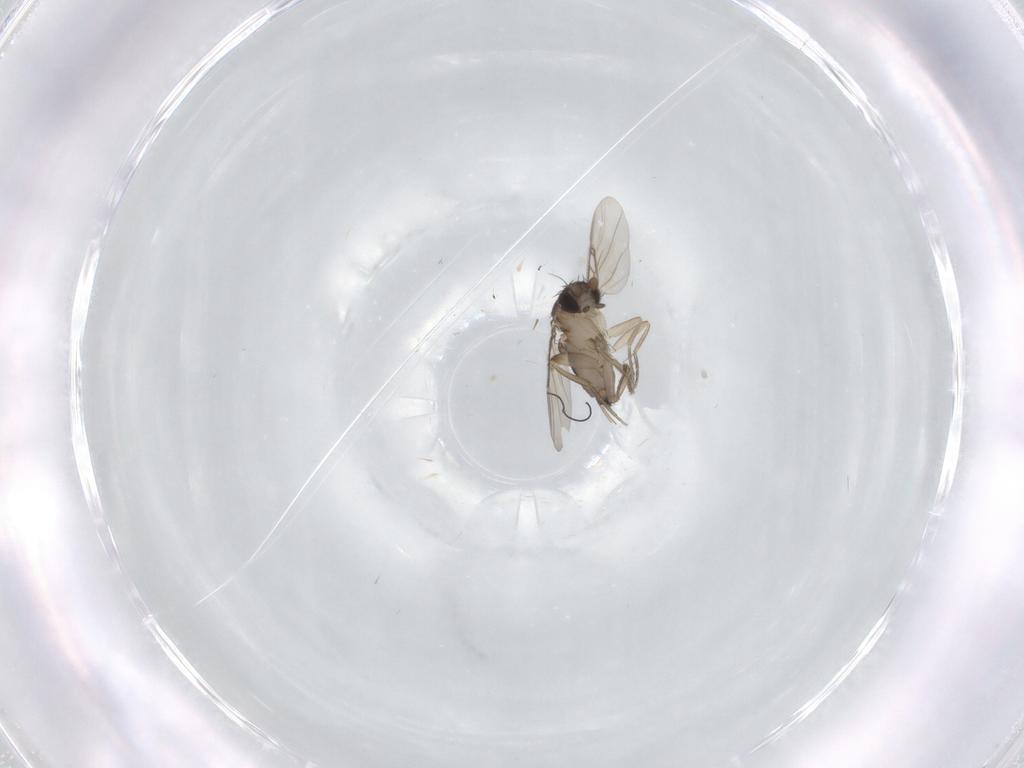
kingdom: Animalia
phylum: Arthropoda
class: Insecta
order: Diptera
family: Phoridae
